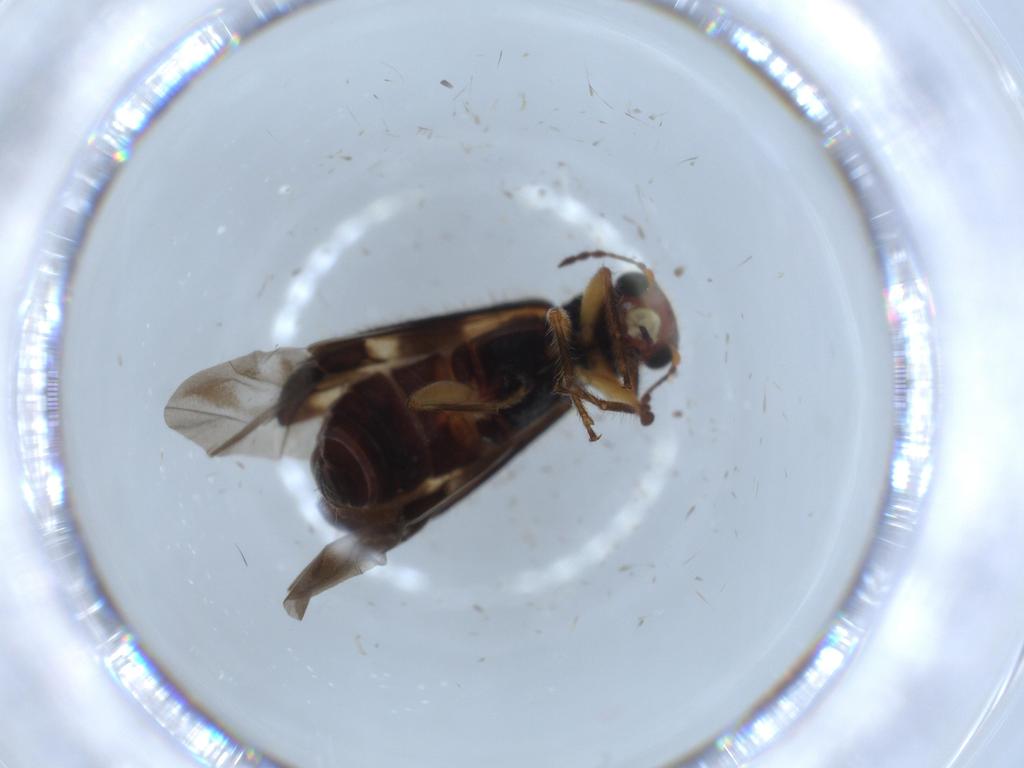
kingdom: Animalia
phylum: Arthropoda
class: Insecta
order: Coleoptera
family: Cleridae
